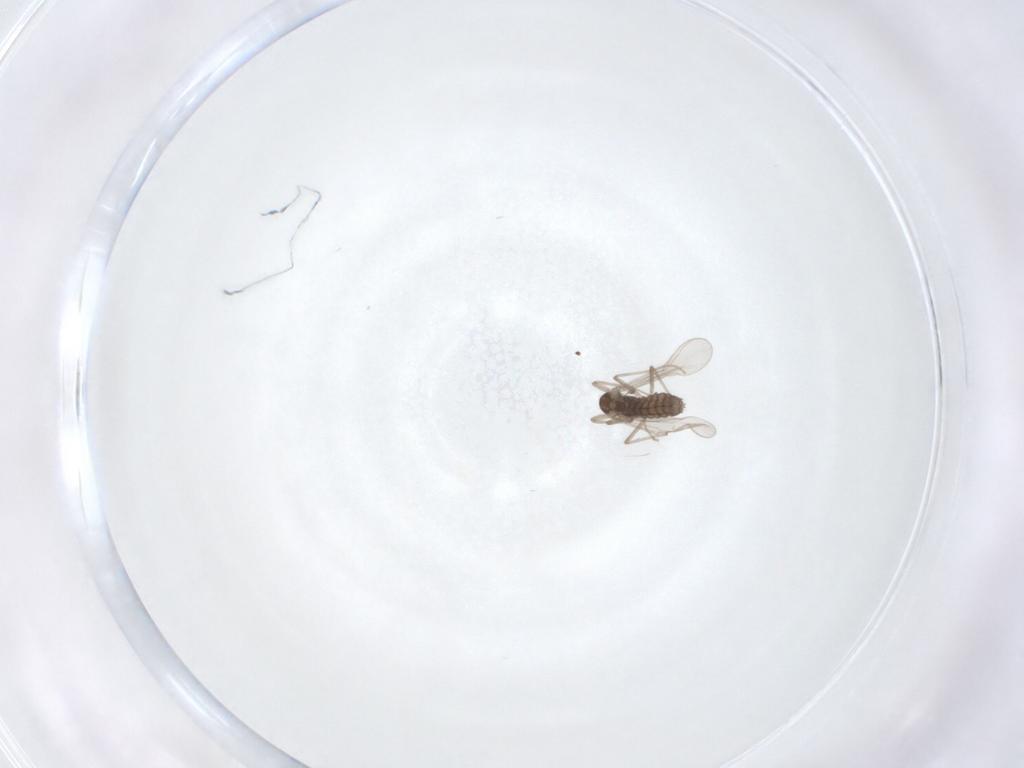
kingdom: Animalia
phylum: Arthropoda
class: Insecta
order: Diptera
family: Chironomidae
